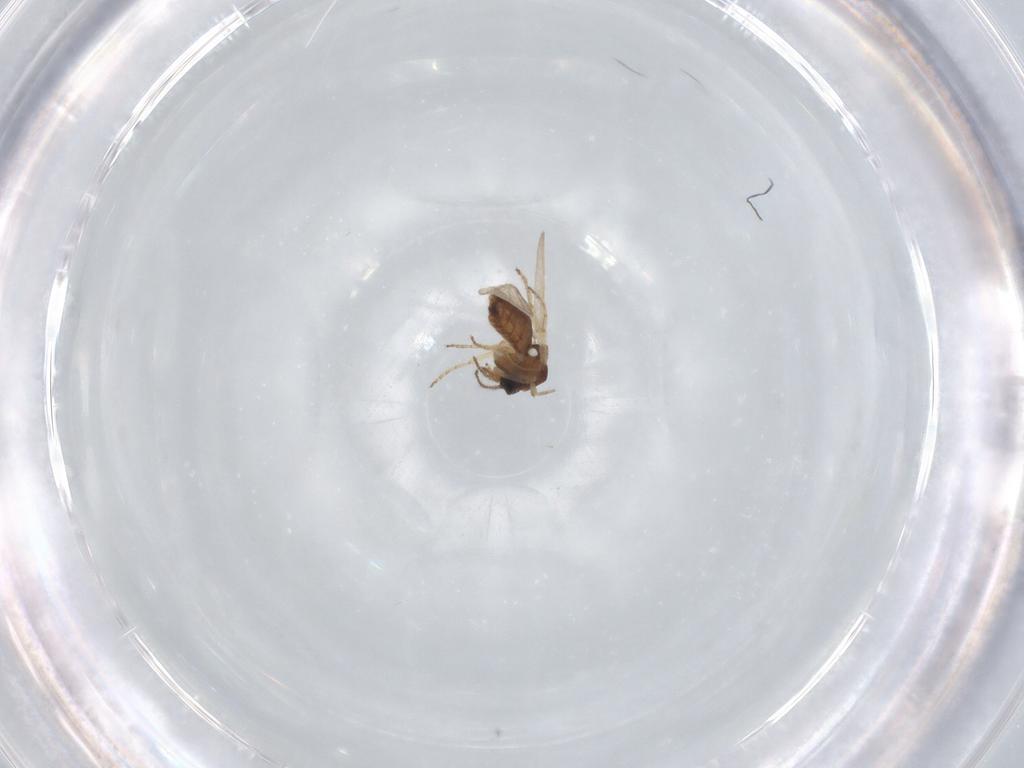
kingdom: Animalia
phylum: Arthropoda
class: Insecta
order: Diptera
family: Ceratopogonidae
